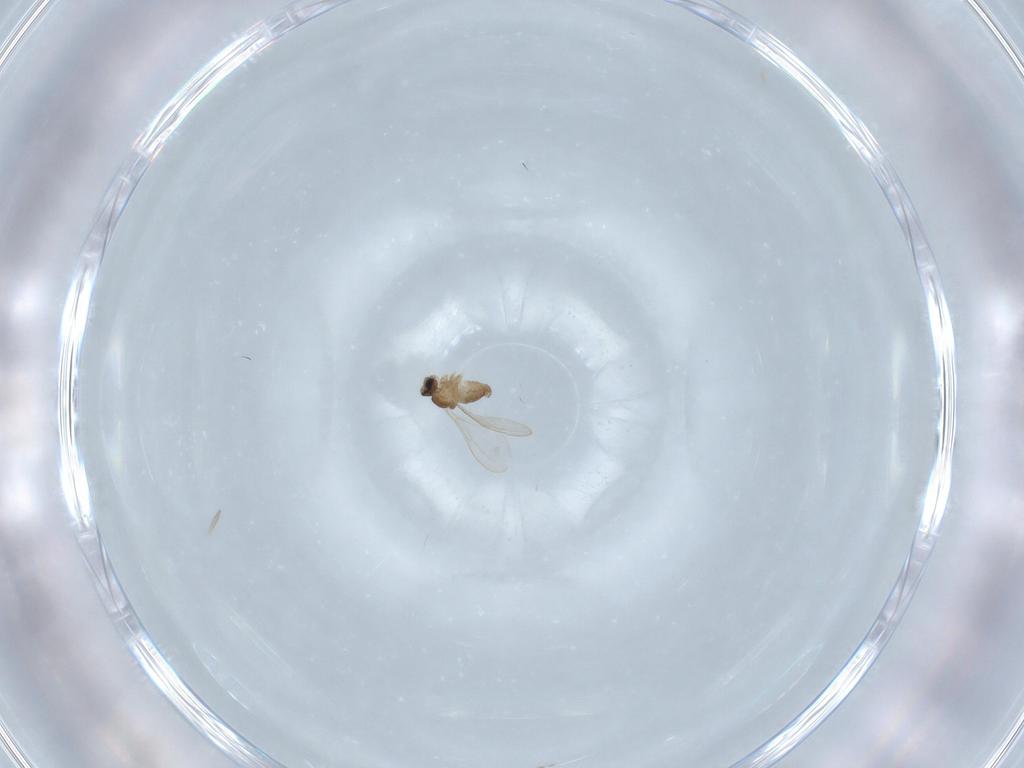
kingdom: Animalia
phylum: Arthropoda
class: Insecta
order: Diptera
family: Cecidomyiidae
